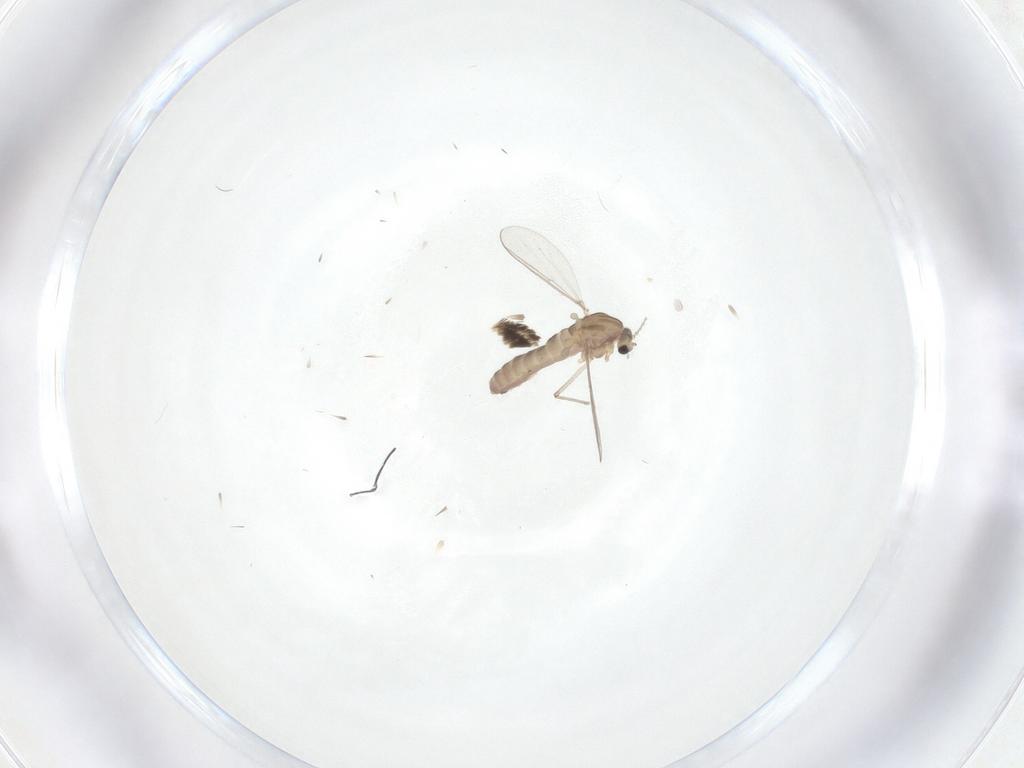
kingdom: Animalia
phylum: Arthropoda
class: Insecta
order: Diptera
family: Chironomidae
